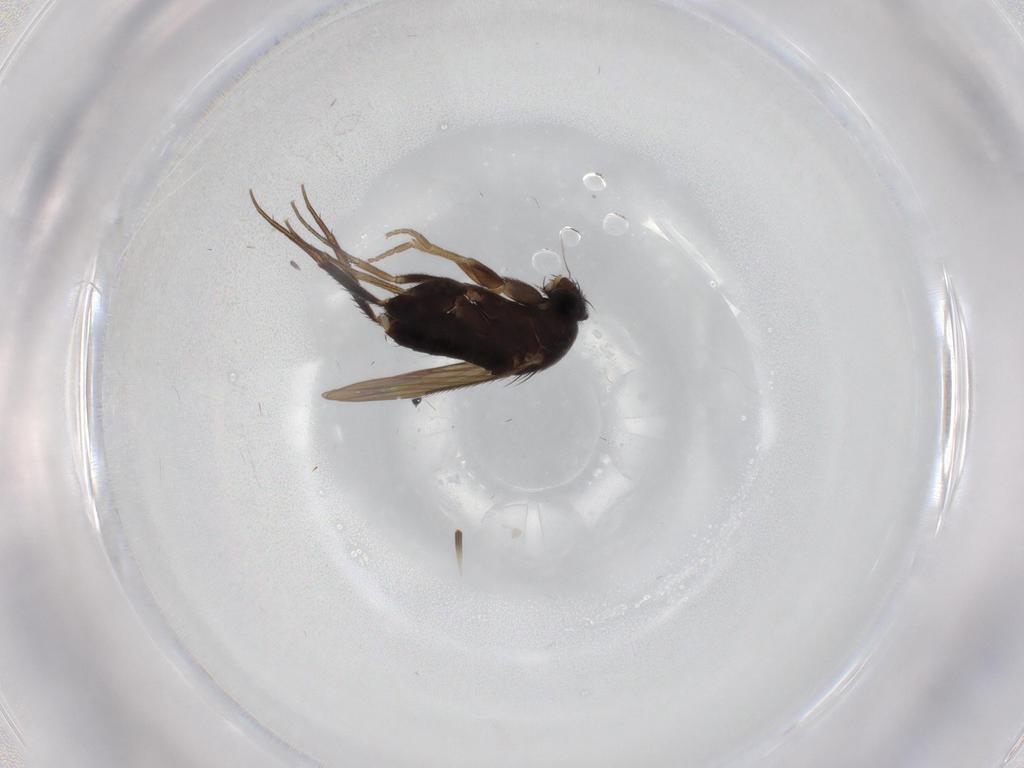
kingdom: Animalia
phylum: Arthropoda
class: Insecta
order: Diptera
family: Phoridae
